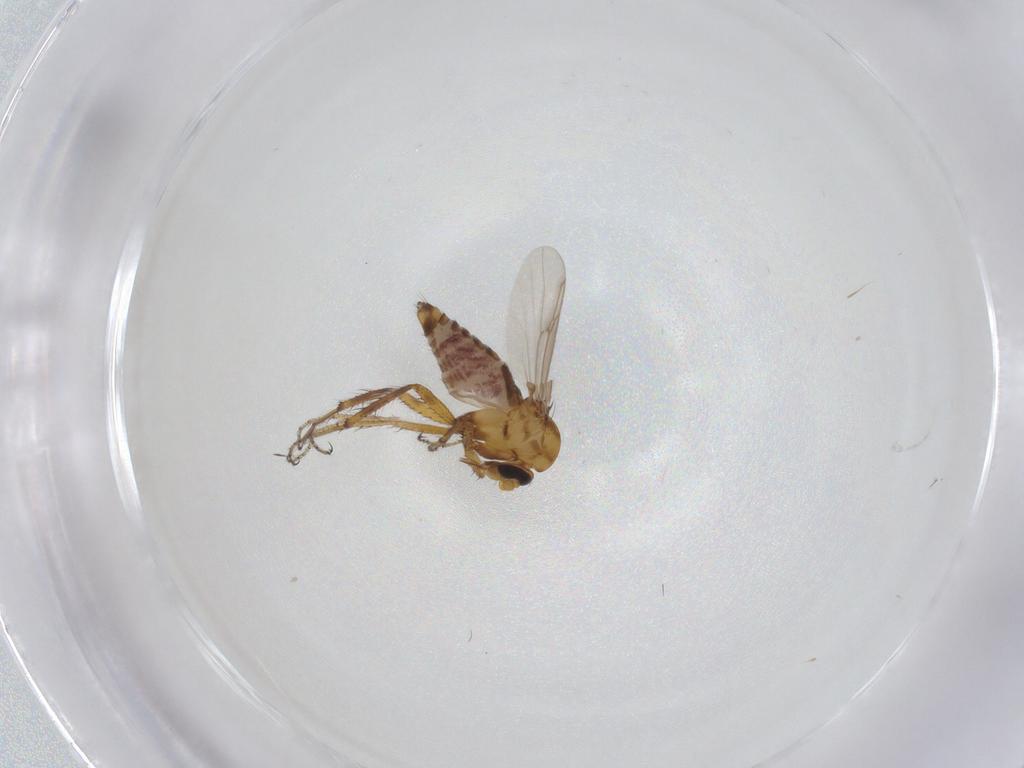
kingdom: Animalia
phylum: Arthropoda
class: Insecta
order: Diptera
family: Ceratopogonidae
